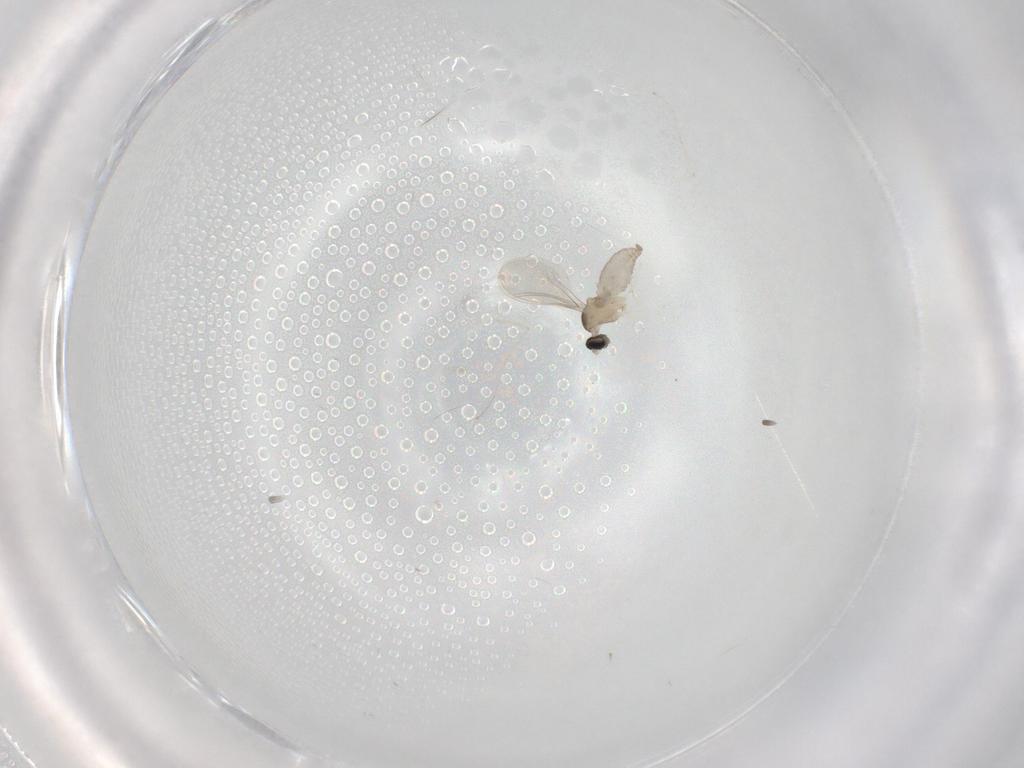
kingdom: Animalia
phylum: Arthropoda
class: Insecta
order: Diptera
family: Cecidomyiidae
